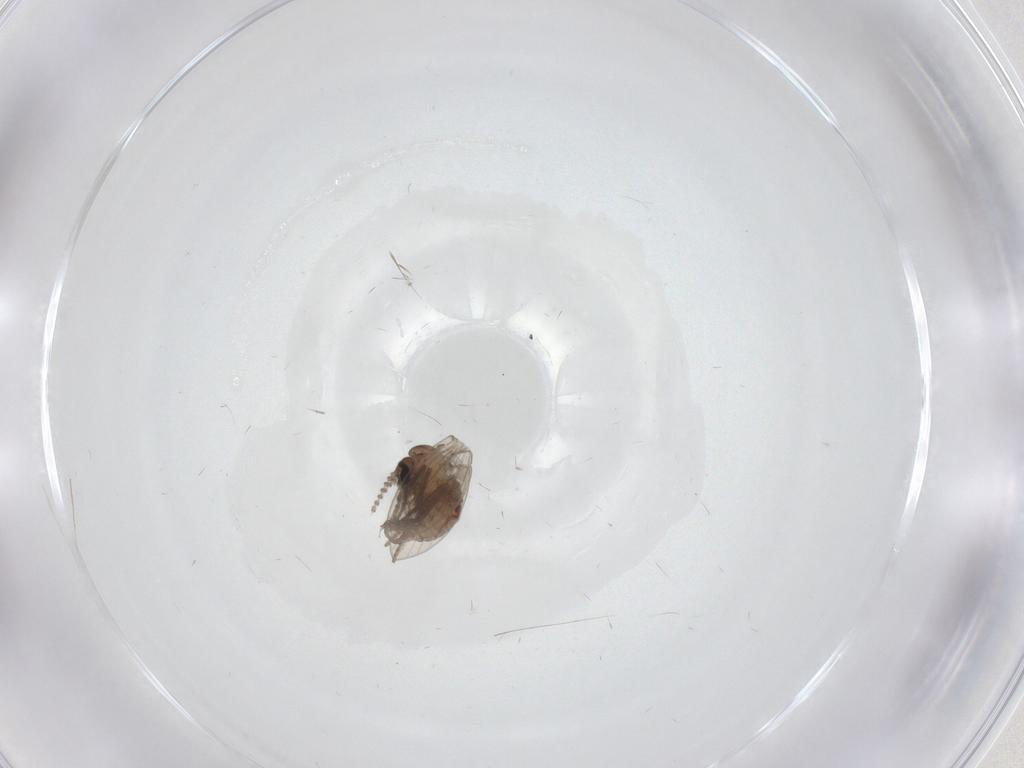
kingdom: Animalia
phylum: Arthropoda
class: Insecta
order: Diptera
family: Psychodidae
